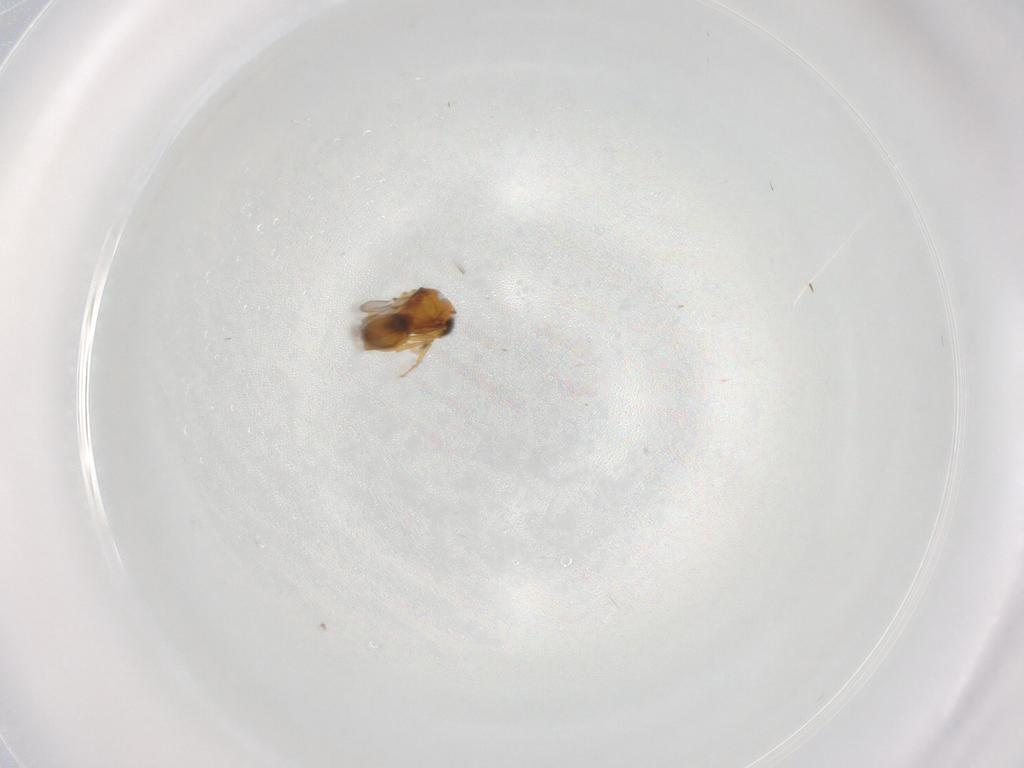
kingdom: Animalia
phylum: Arthropoda
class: Insecta
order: Hymenoptera
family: Scelionidae
